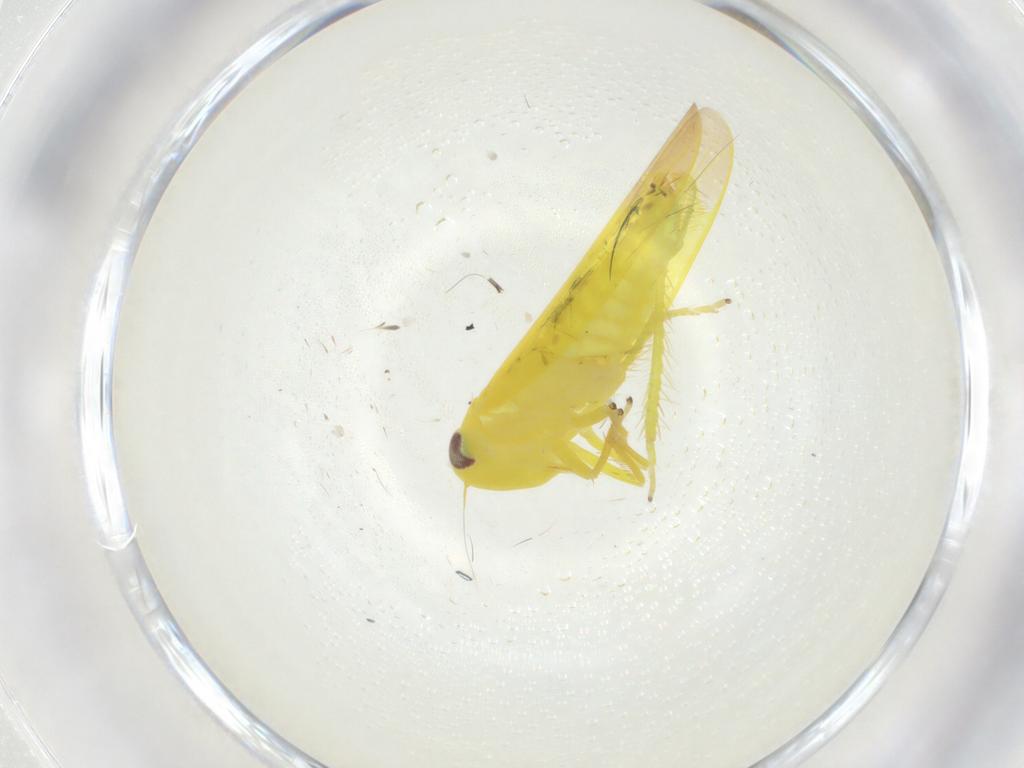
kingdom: Animalia
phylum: Arthropoda
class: Insecta
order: Hemiptera
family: Cicadellidae
